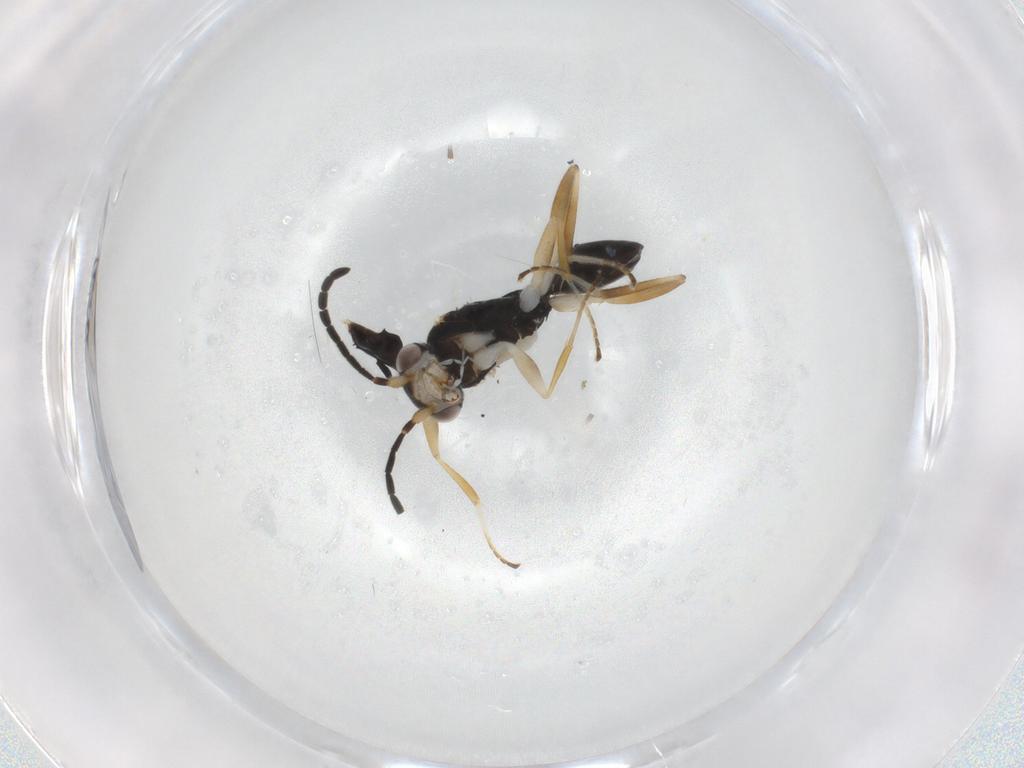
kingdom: Animalia
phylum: Arthropoda
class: Insecta
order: Hymenoptera
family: Dryinidae
